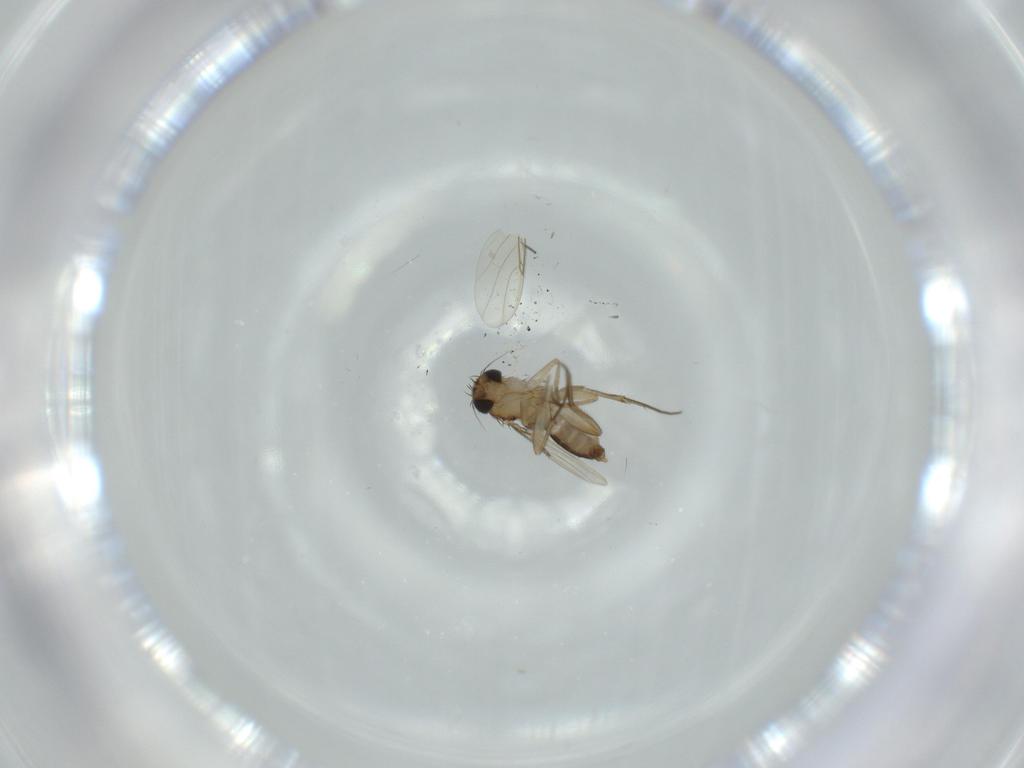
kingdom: Animalia
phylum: Arthropoda
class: Insecta
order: Diptera
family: Phoridae
